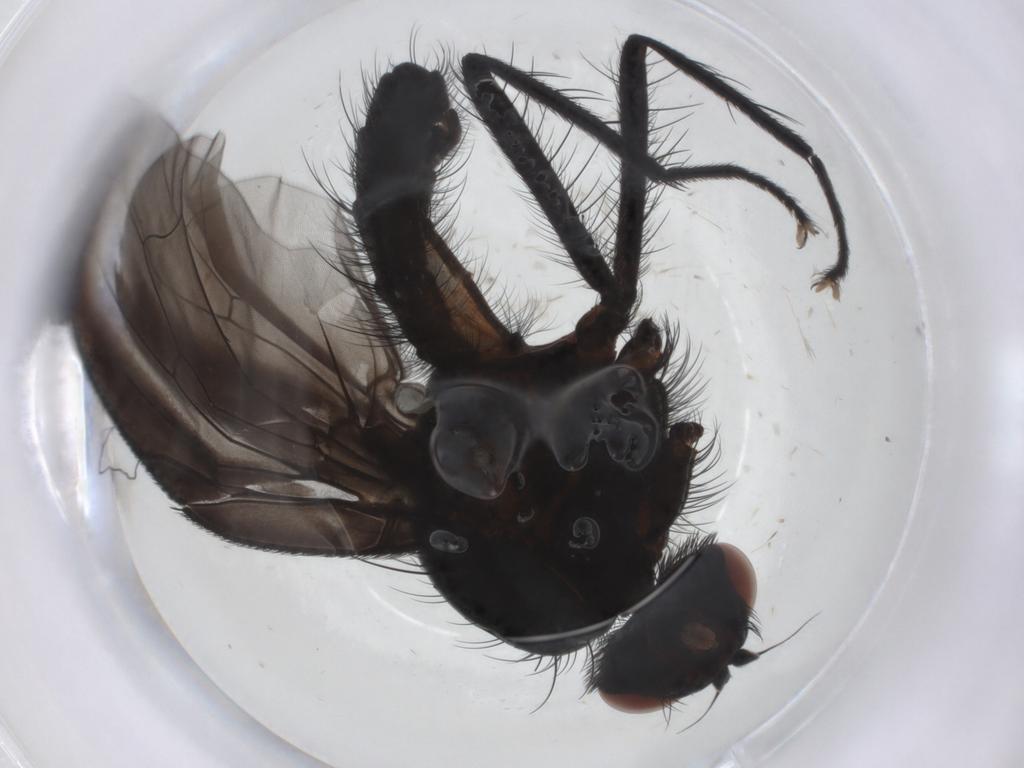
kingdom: Animalia
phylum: Arthropoda
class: Insecta
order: Diptera
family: Anthomyiidae
